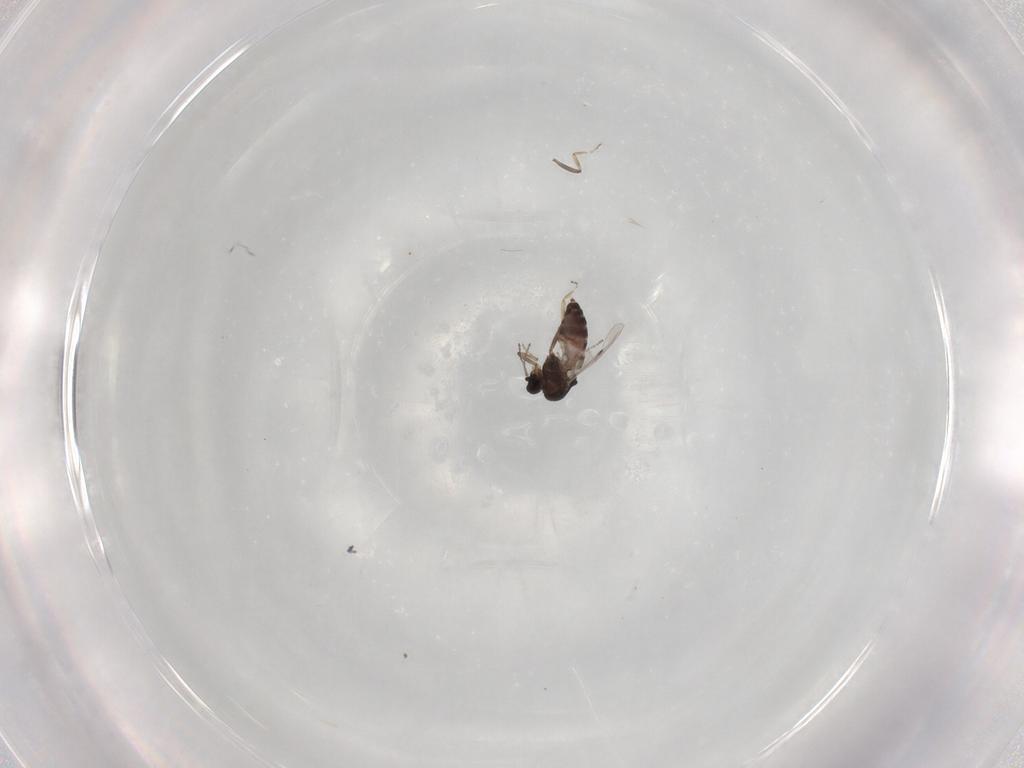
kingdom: Animalia
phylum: Arthropoda
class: Insecta
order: Diptera
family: Ceratopogonidae
